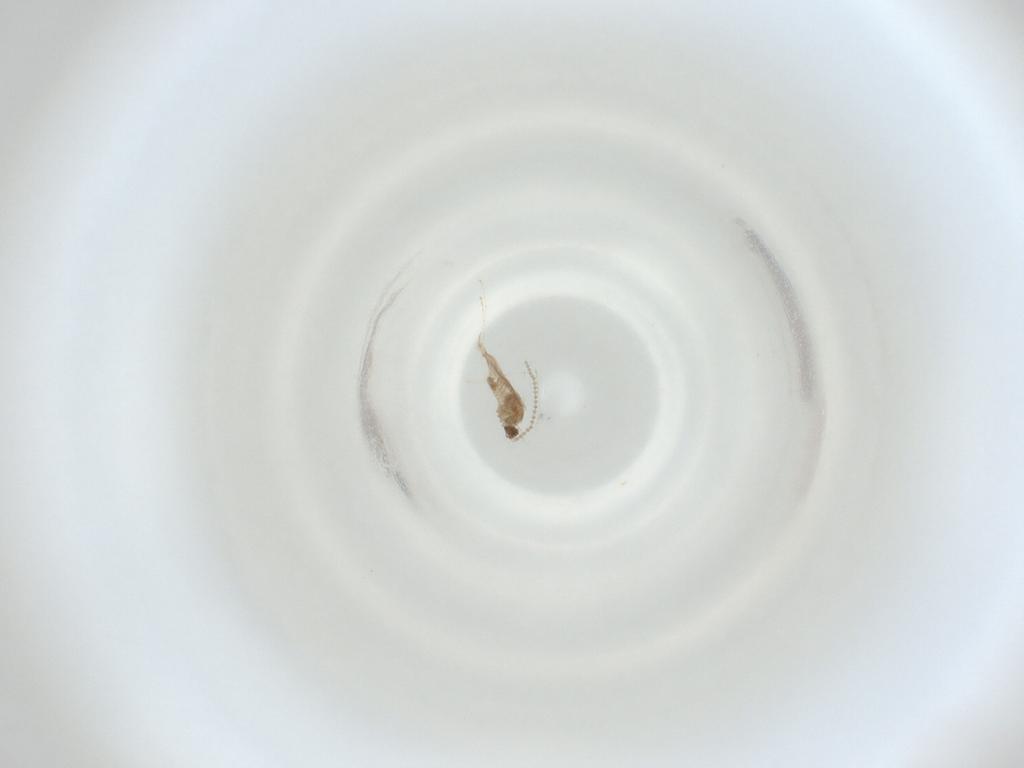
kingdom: Animalia
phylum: Arthropoda
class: Insecta
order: Diptera
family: Cecidomyiidae
